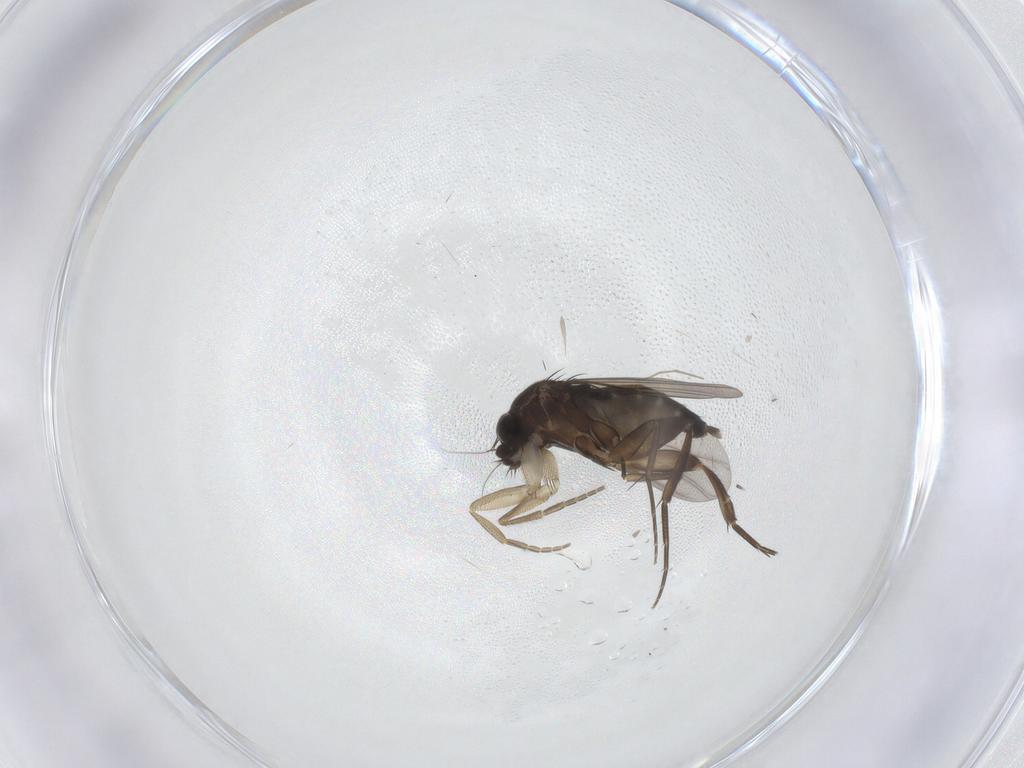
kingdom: Animalia
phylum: Arthropoda
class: Insecta
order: Diptera
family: Phoridae
